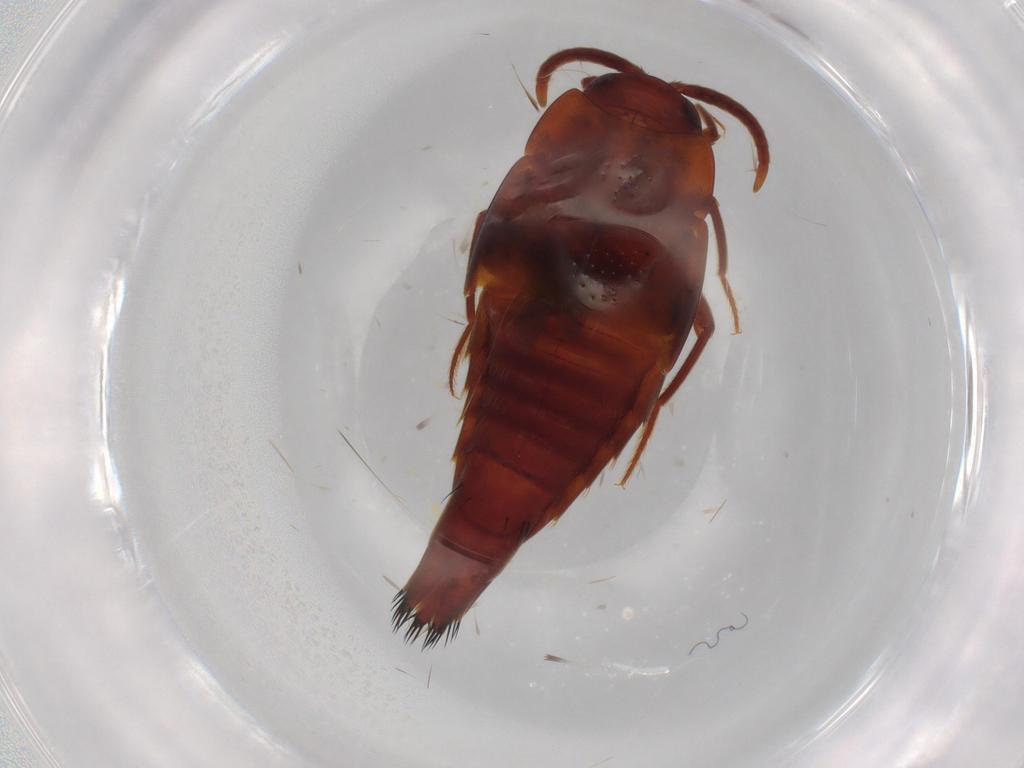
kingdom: Animalia
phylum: Arthropoda
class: Insecta
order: Coleoptera
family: Staphylinidae
